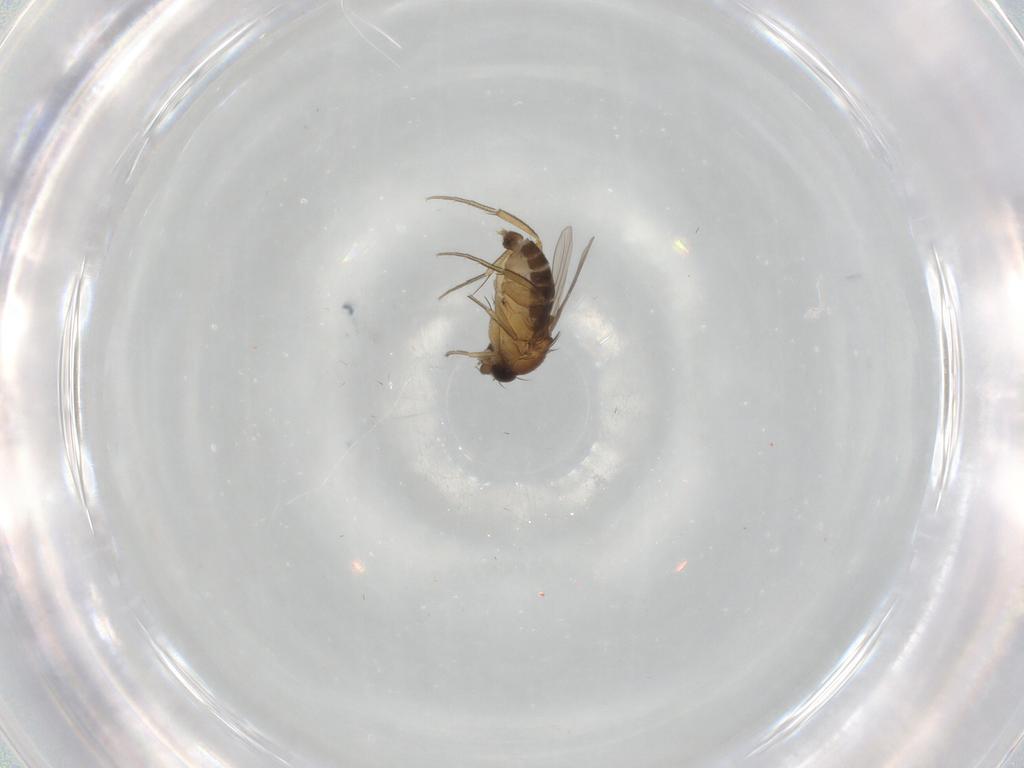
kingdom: Animalia
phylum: Arthropoda
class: Insecta
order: Diptera
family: Phoridae
